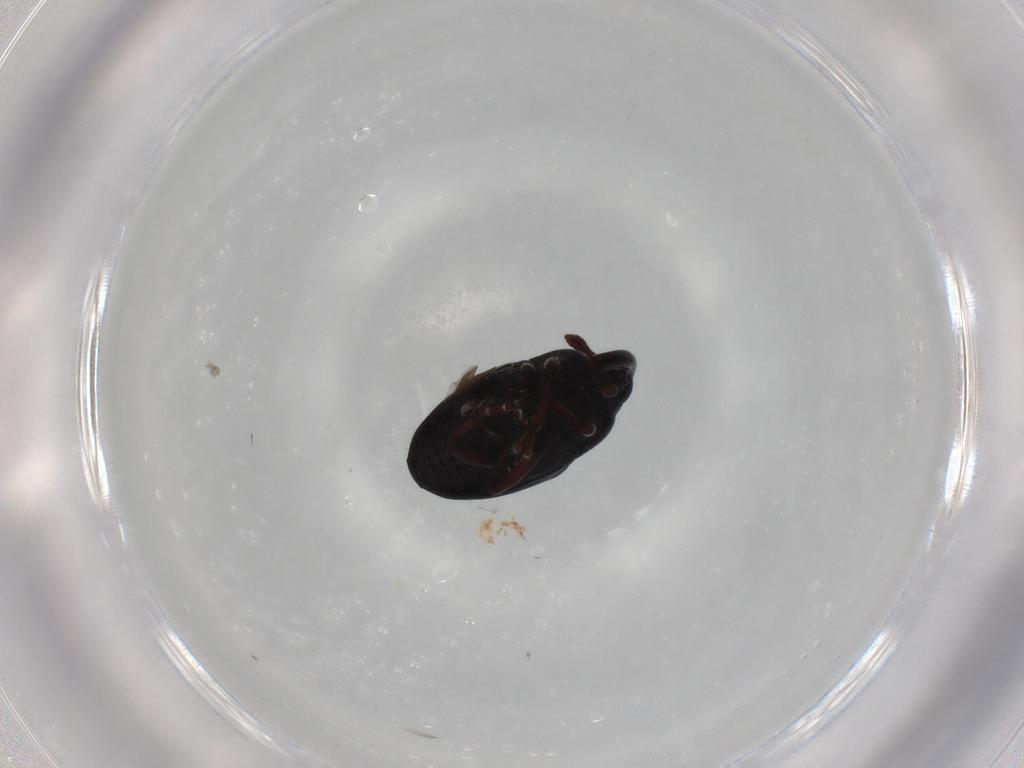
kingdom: Animalia
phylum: Arthropoda
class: Insecta
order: Coleoptera
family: Curculionidae
